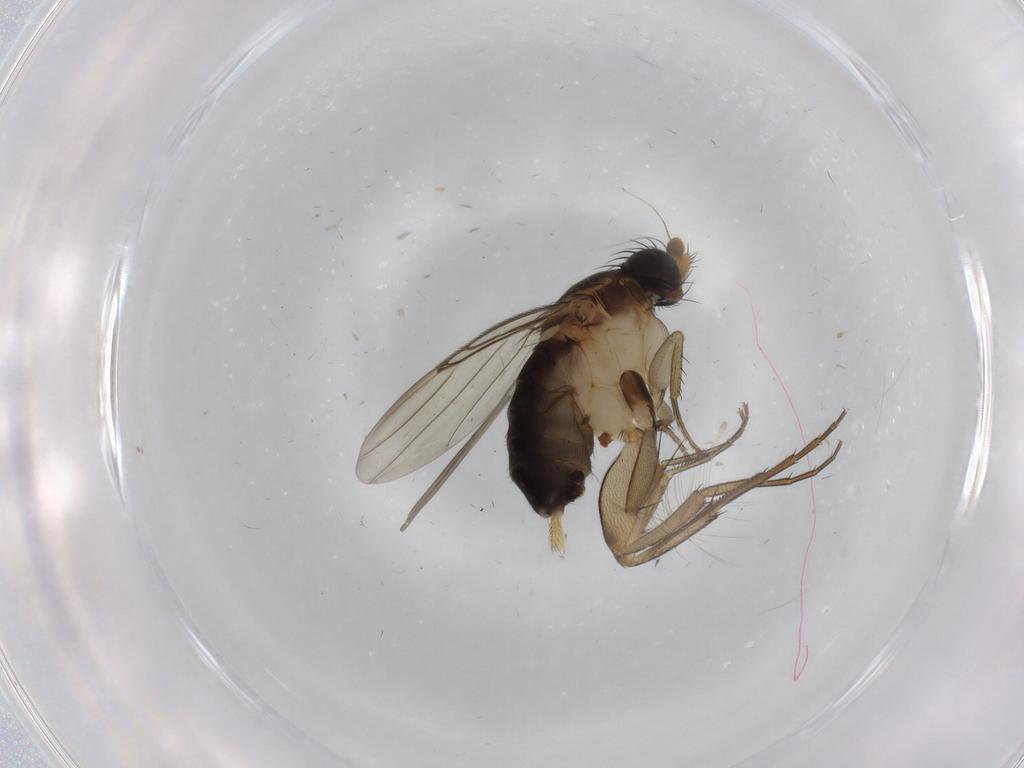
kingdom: Animalia
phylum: Arthropoda
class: Insecta
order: Diptera
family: Phoridae
